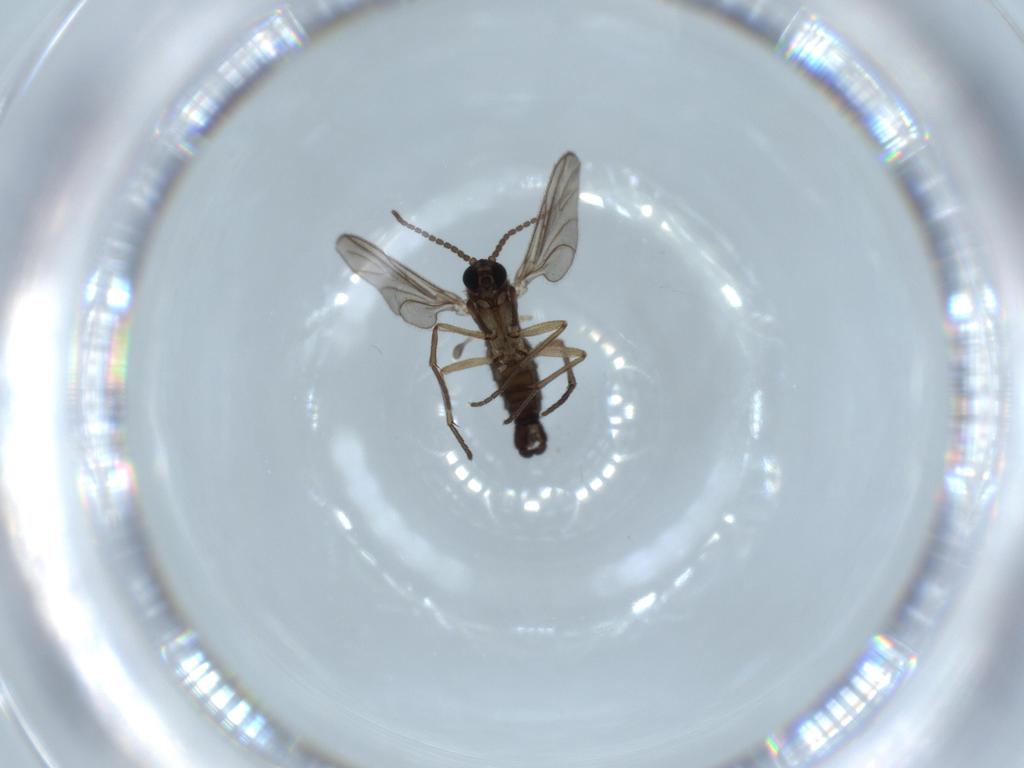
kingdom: Animalia
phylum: Arthropoda
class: Insecta
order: Diptera
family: Sciaridae
